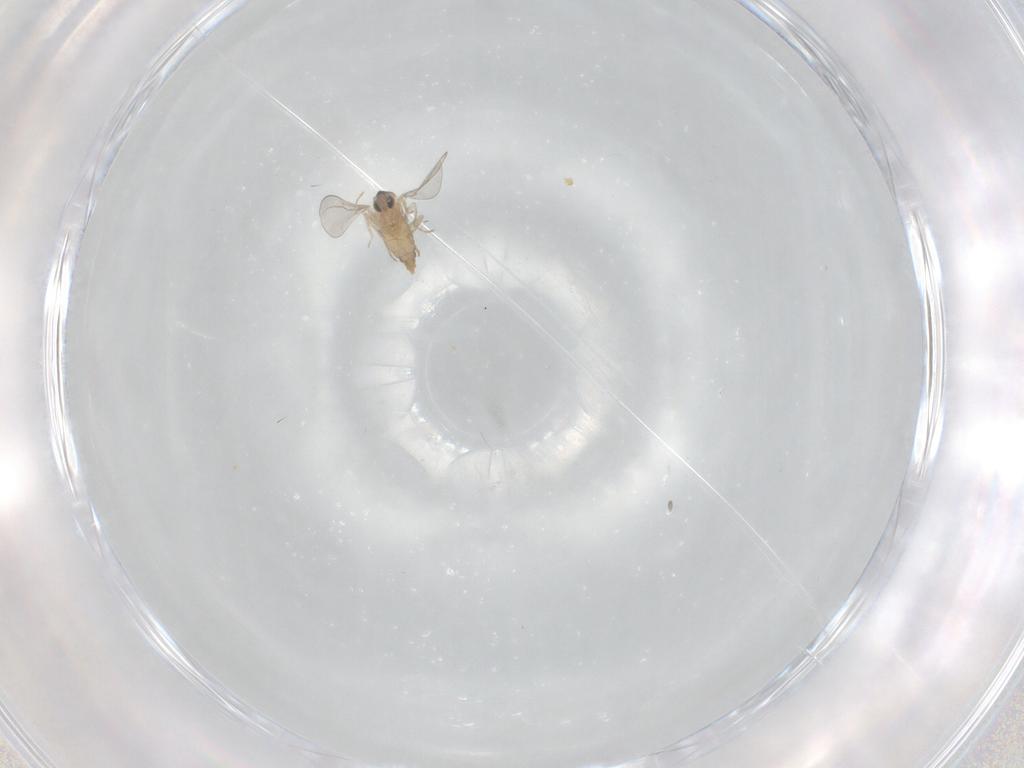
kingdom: Animalia
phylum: Arthropoda
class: Insecta
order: Diptera
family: Cecidomyiidae
